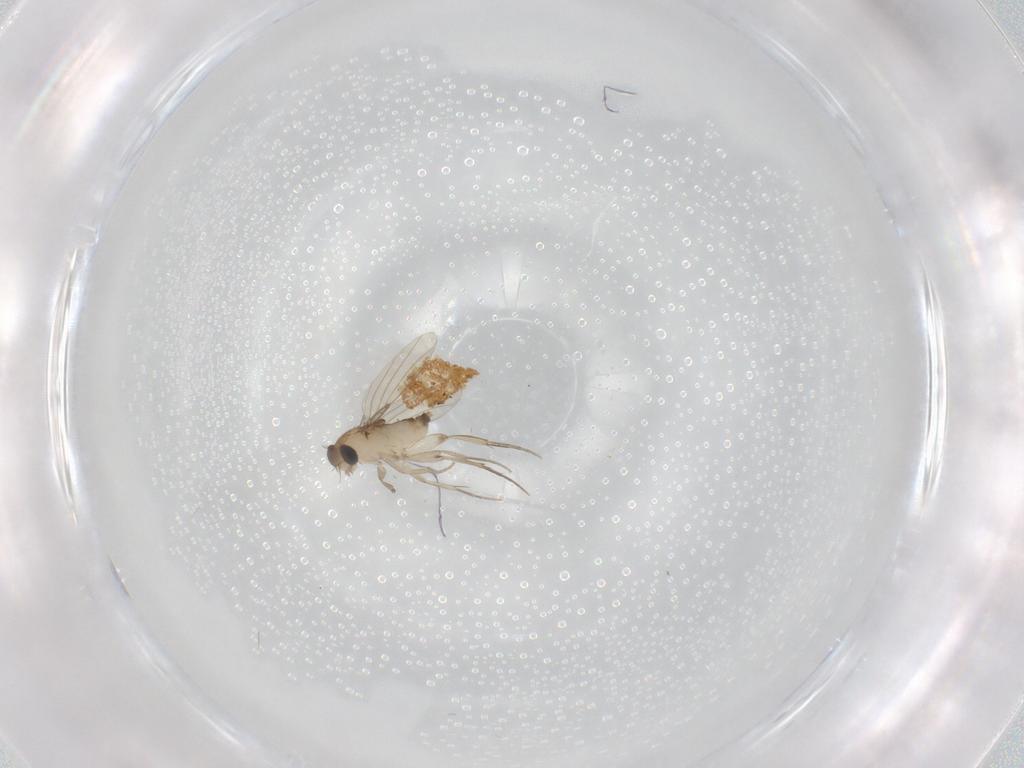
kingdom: Animalia
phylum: Arthropoda
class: Insecta
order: Diptera
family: Phoridae
